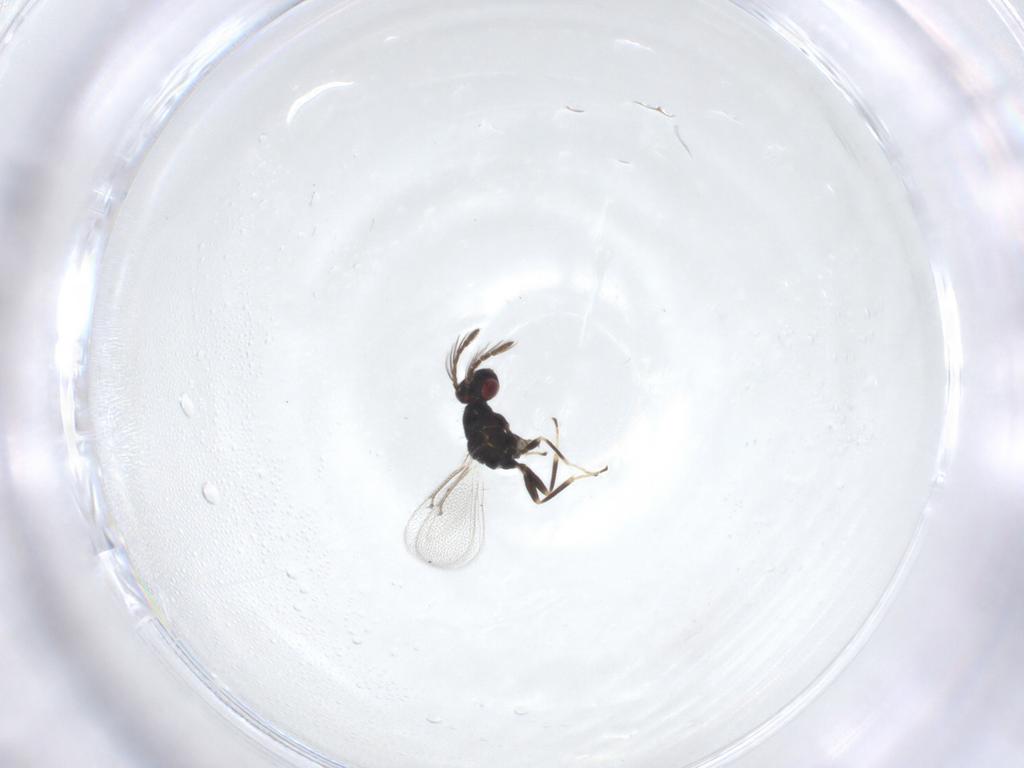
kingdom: Animalia
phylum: Arthropoda
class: Insecta
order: Hymenoptera
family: Eulophidae
